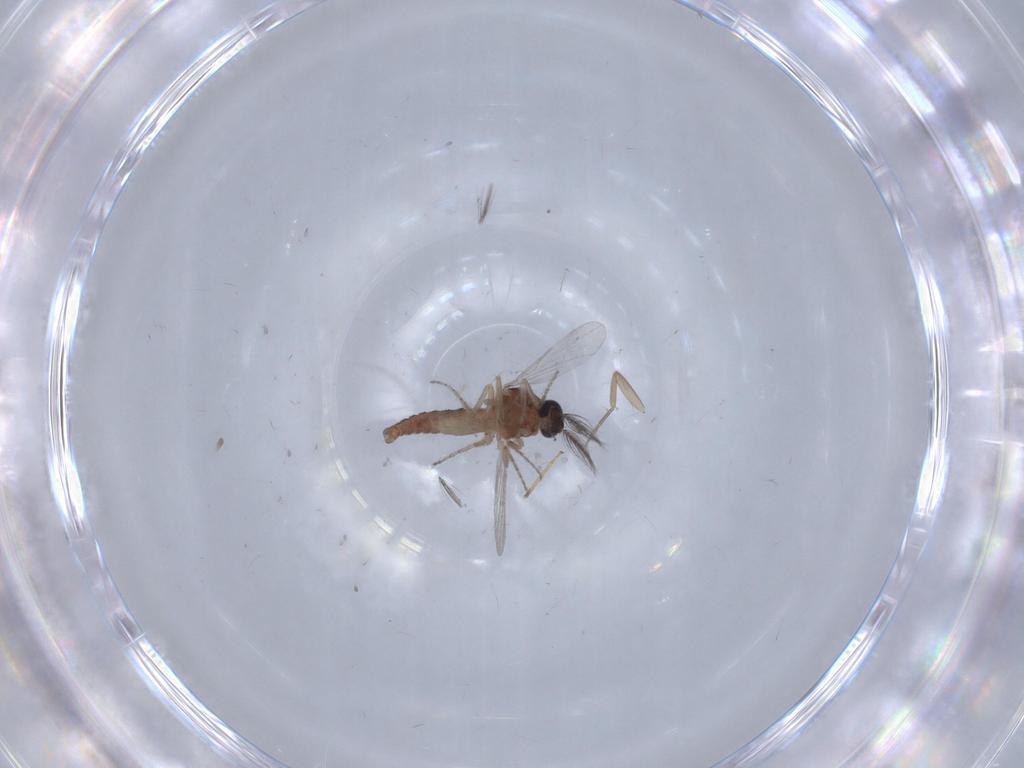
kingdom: Animalia
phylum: Arthropoda
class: Insecta
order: Diptera
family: Phoridae
